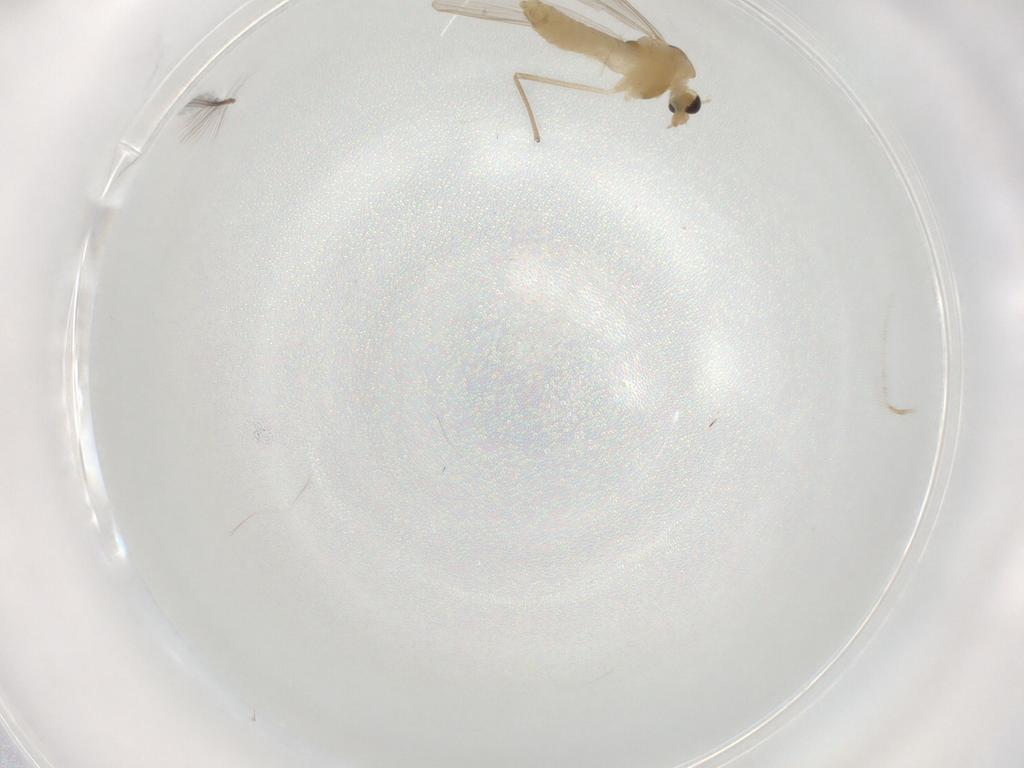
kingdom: Animalia
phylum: Arthropoda
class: Insecta
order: Diptera
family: Chironomidae
